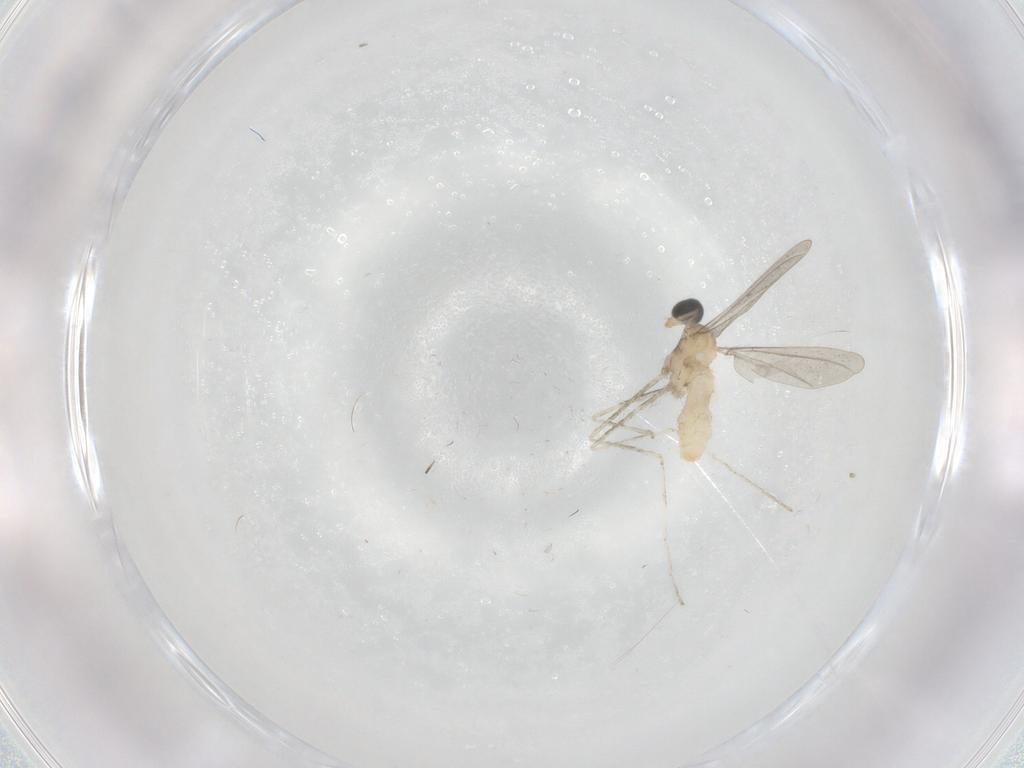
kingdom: Animalia
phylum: Arthropoda
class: Insecta
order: Diptera
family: Cecidomyiidae
